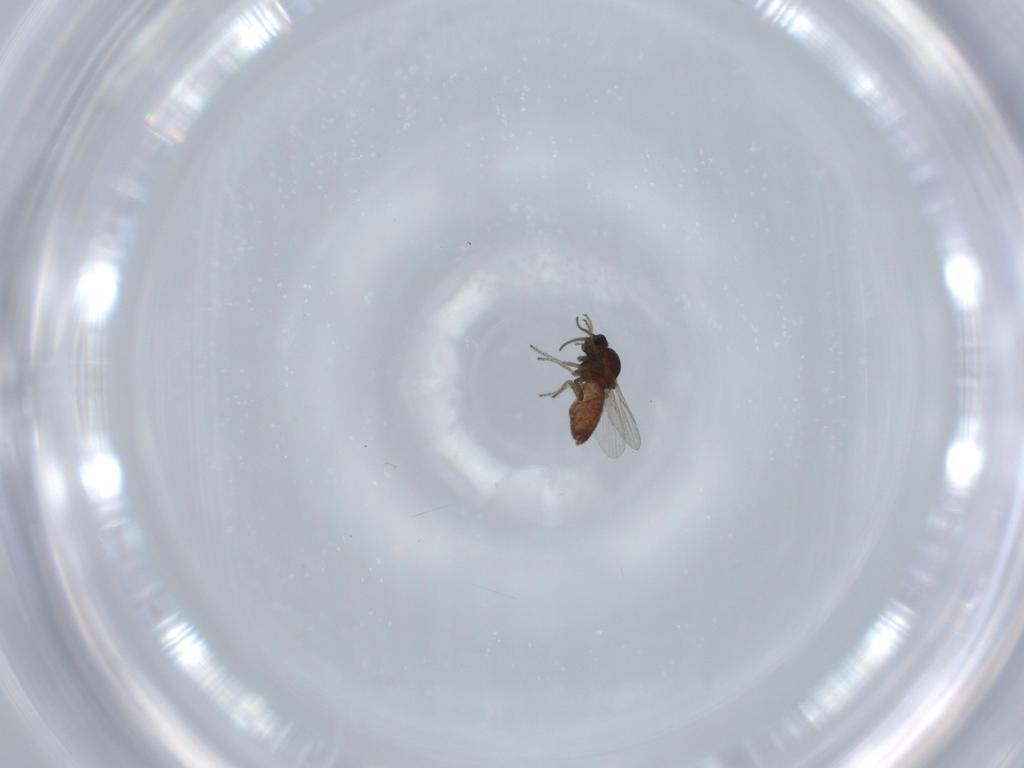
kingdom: Animalia
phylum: Arthropoda
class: Insecta
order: Diptera
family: Ceratopogonidae
